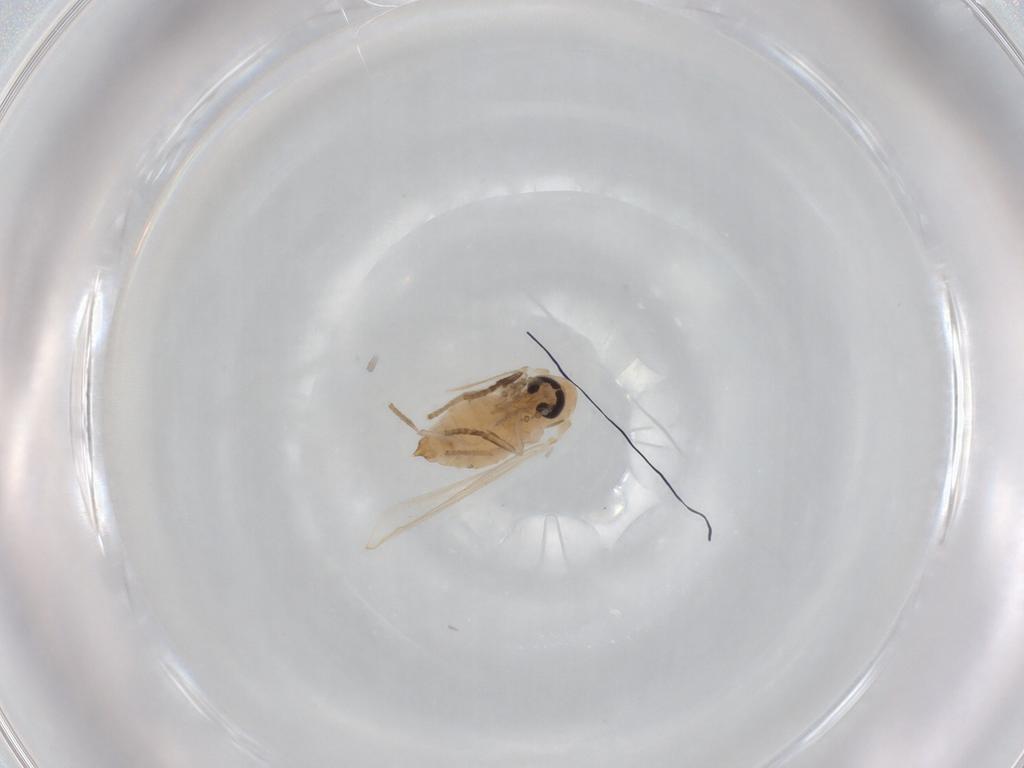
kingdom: Animalia
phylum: Arthropoda
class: Insecta
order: Diptera
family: Psychodidae
